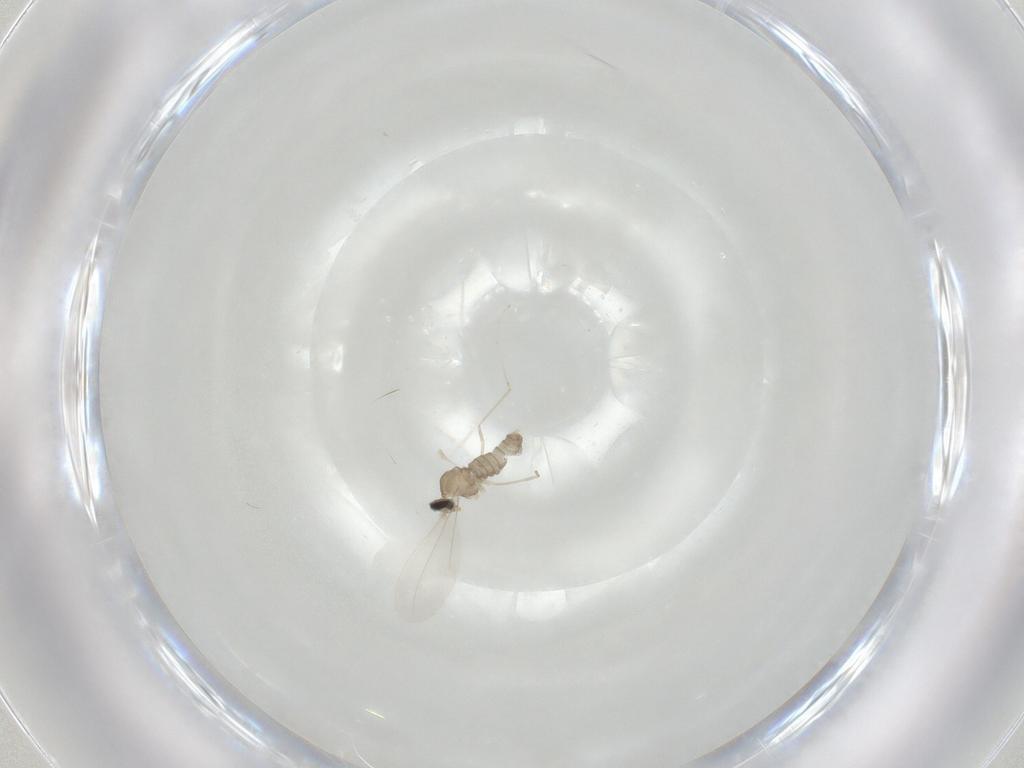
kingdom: Animalia
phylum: Arthropoda
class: Insecta
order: Diptera
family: Cecidomyiidae
